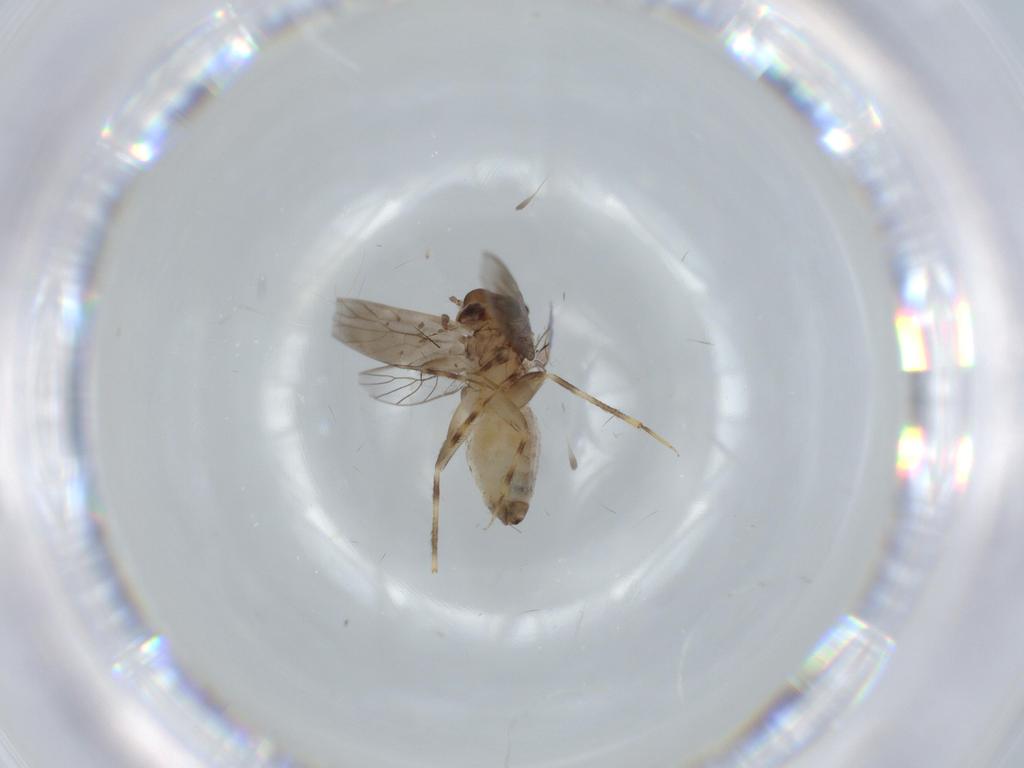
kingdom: Animalia
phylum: Arthropoda
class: Insecta
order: Diptera
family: Sciaridae
